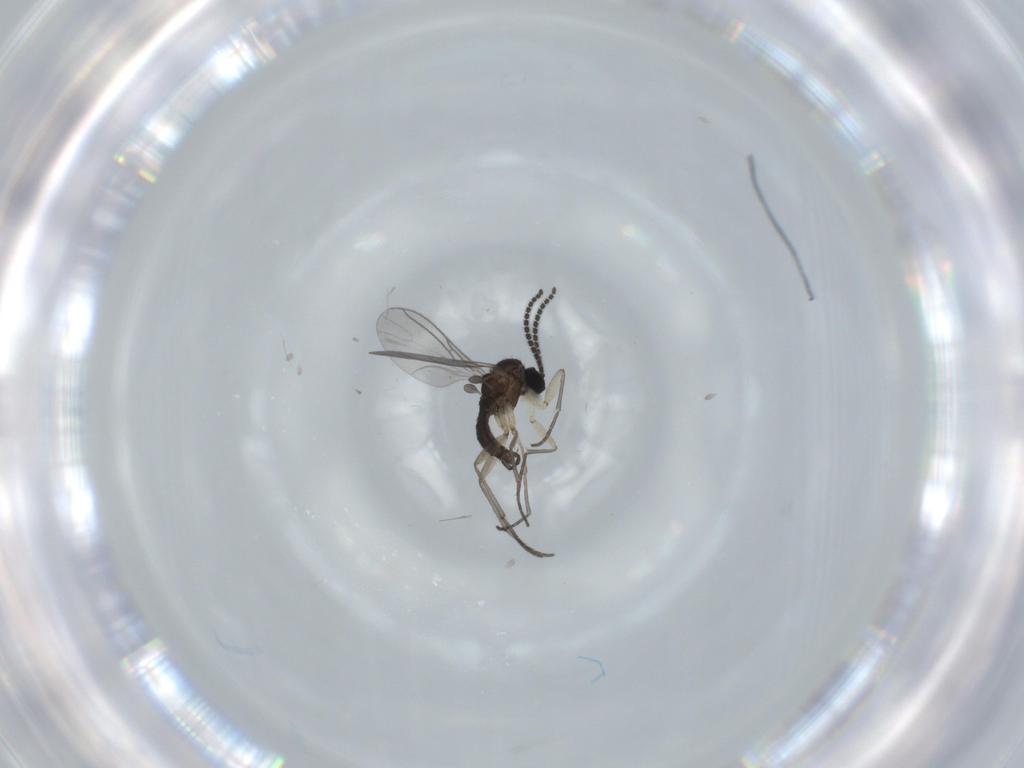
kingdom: Animalia
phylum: Arthropoda
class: Insecta
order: Diptera
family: Sciaridae
